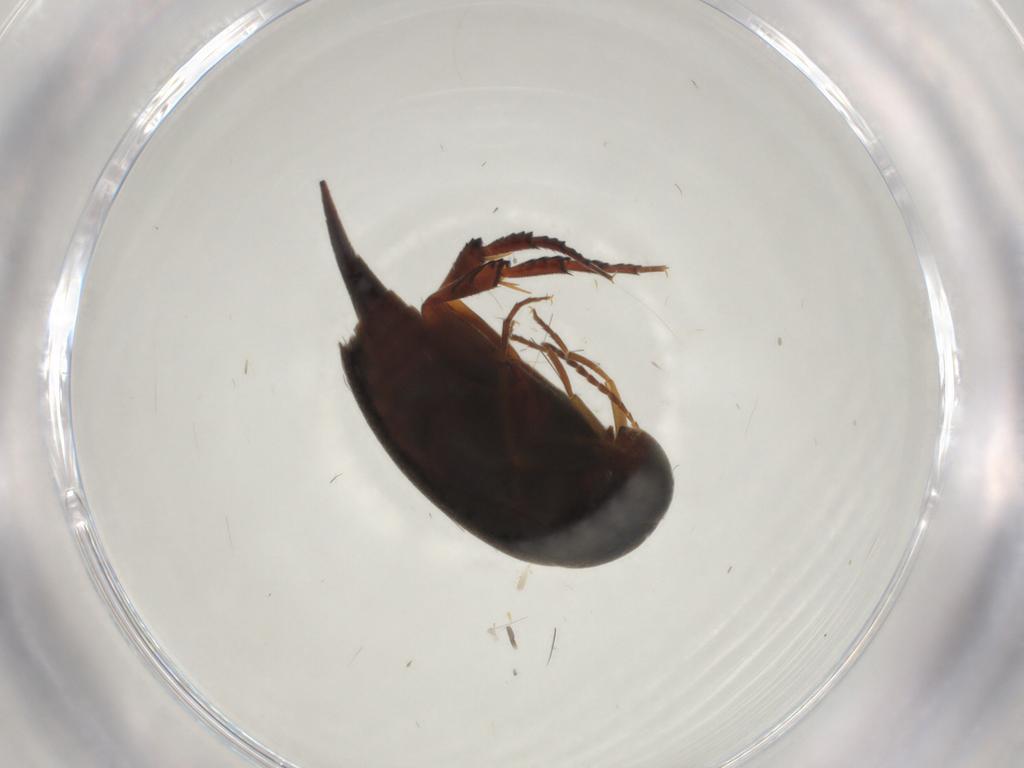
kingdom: Animalia
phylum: Arthropoda
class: Insecta
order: Coleoptera
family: Mordellidae
